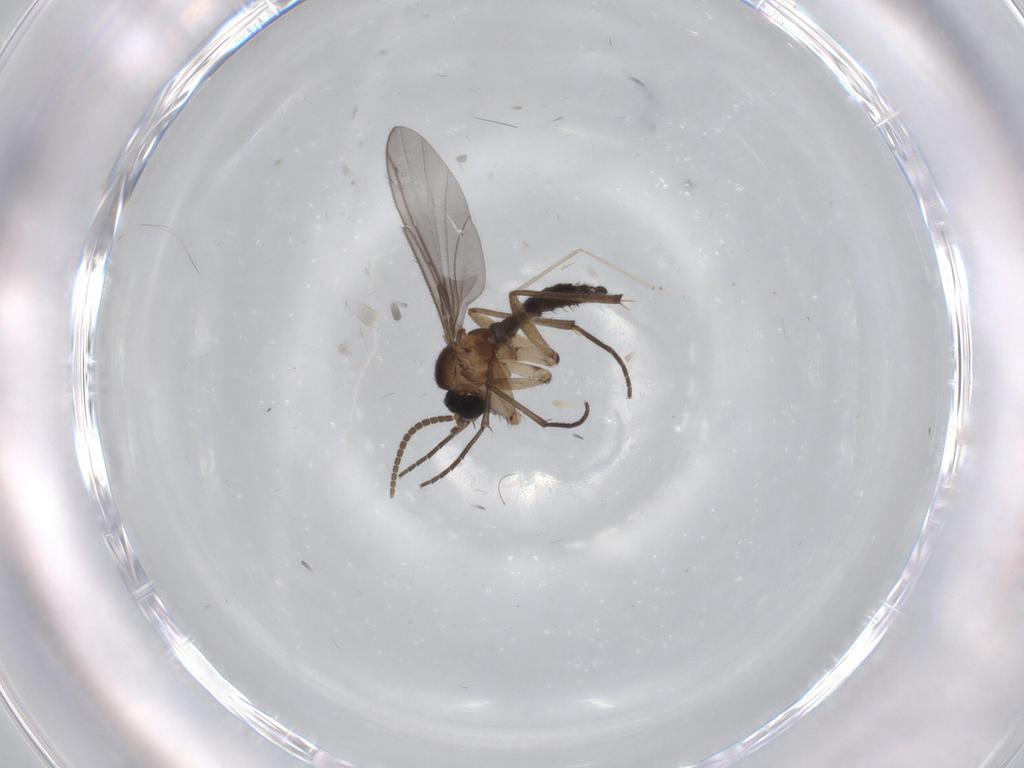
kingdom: Animalia
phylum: Arthropoda
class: Insecta
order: Diptera
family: Cecidomyiidae
